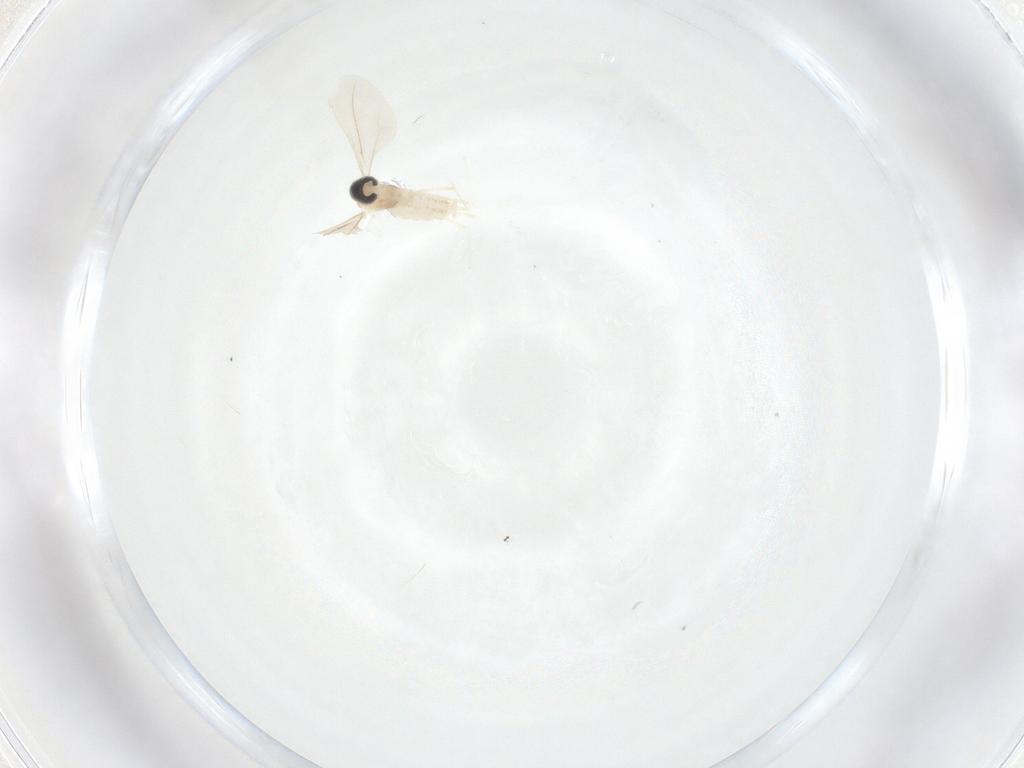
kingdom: Animalia
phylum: Arthropoda
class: Insecta
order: Diptera
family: Cecidomyiidae
